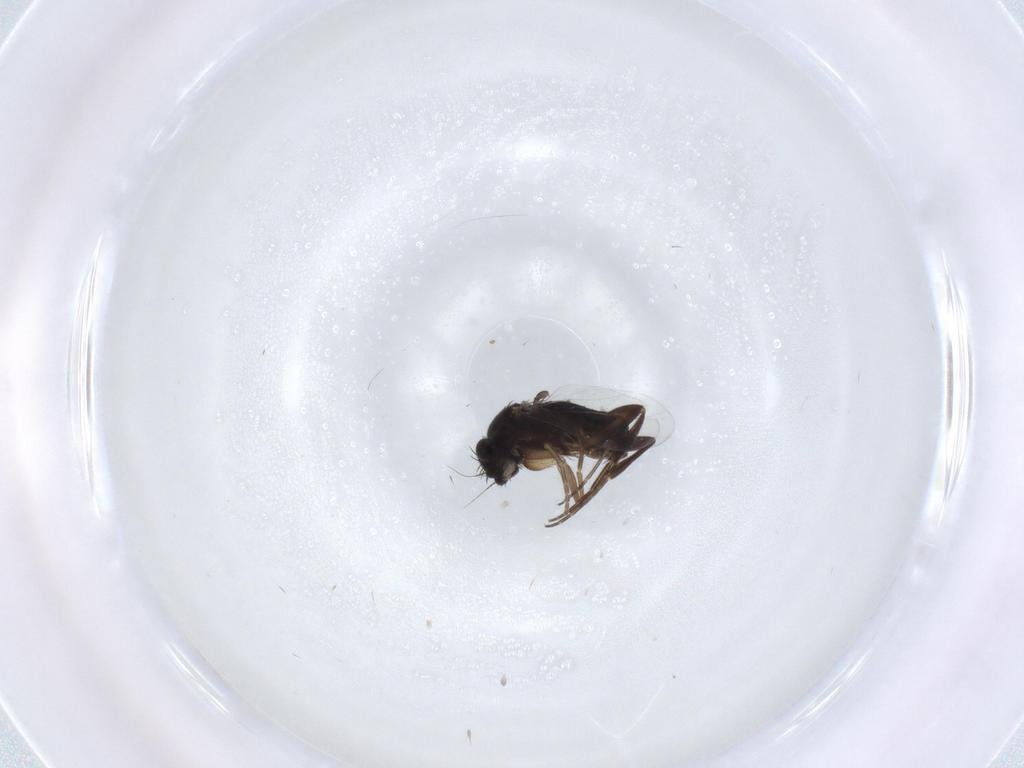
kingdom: Animalia
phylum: Arthropoda
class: Insecta
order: Diptera
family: Phoridae
